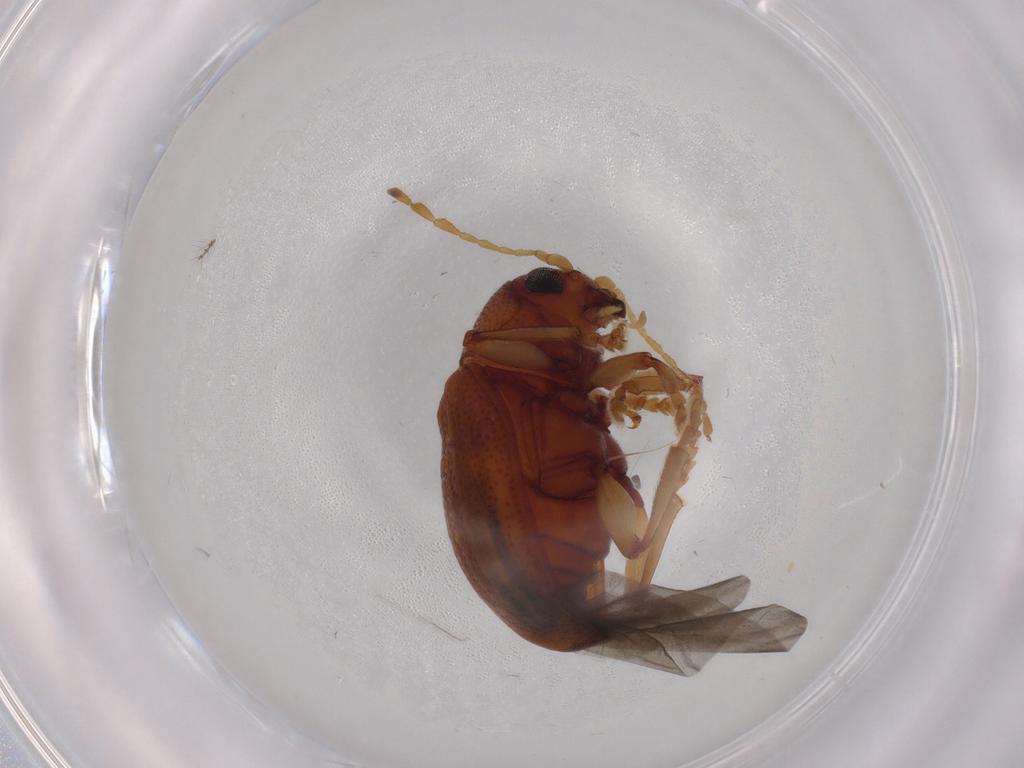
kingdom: Animalia
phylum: Arthropoda
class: Insecta
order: Coleoptera
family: Chrysomelidae
